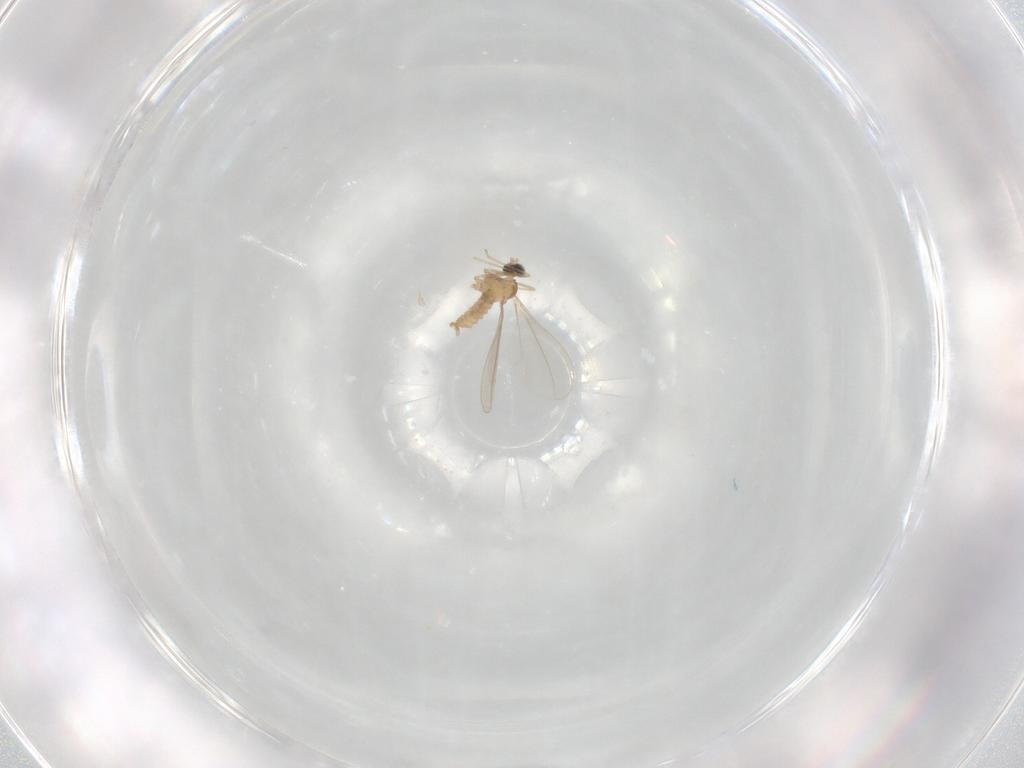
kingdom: Animalia
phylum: Arthropoda
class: Insecta
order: Diptera
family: Cecidomyiidae
